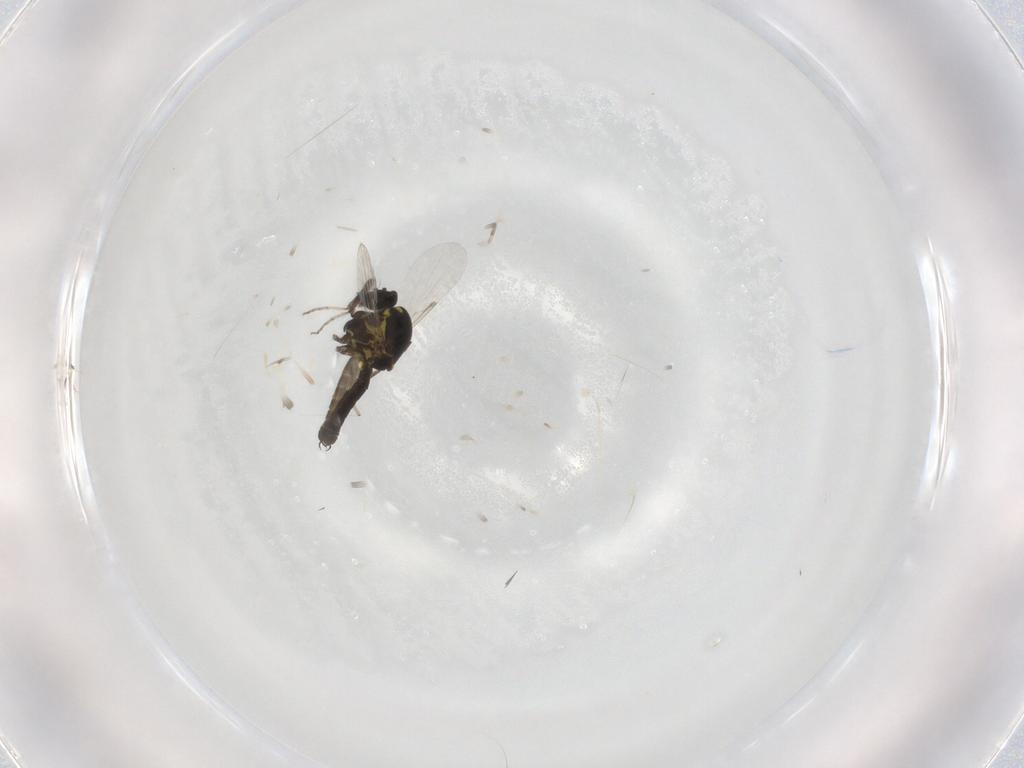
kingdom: Animalia
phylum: Arthropoda
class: Insecta
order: Diptera
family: Ceratopogonidae
